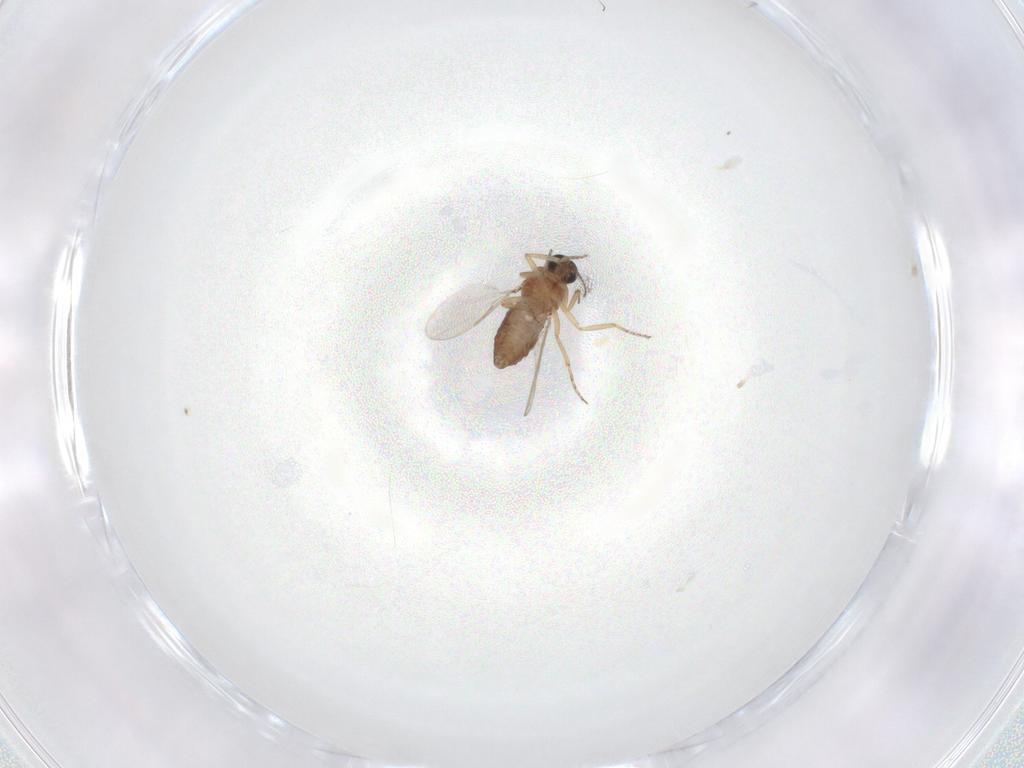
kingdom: Animalia
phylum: Arthropoda
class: Insecta
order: Diptera
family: Ceratopogonidae
